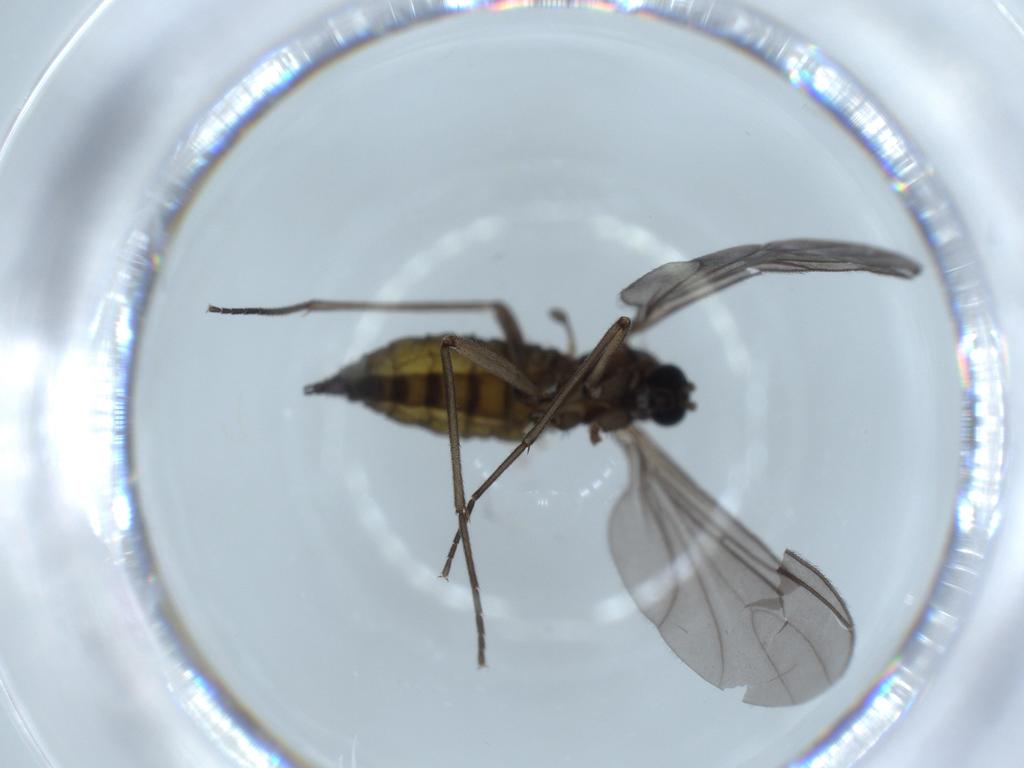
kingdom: Animalia
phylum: Arthropoda
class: Insecta
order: Diptera
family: Sciaridae
